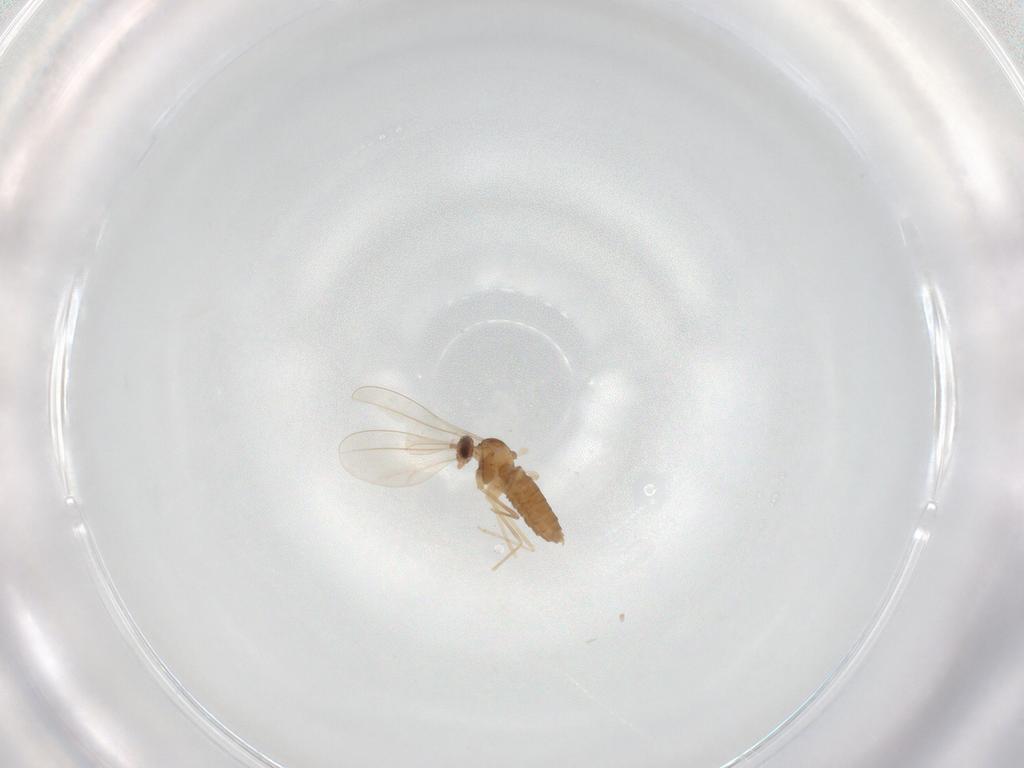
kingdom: Animalia
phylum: Arthropoda
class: Insecta
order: Diptera
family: Cecidomyiidae
